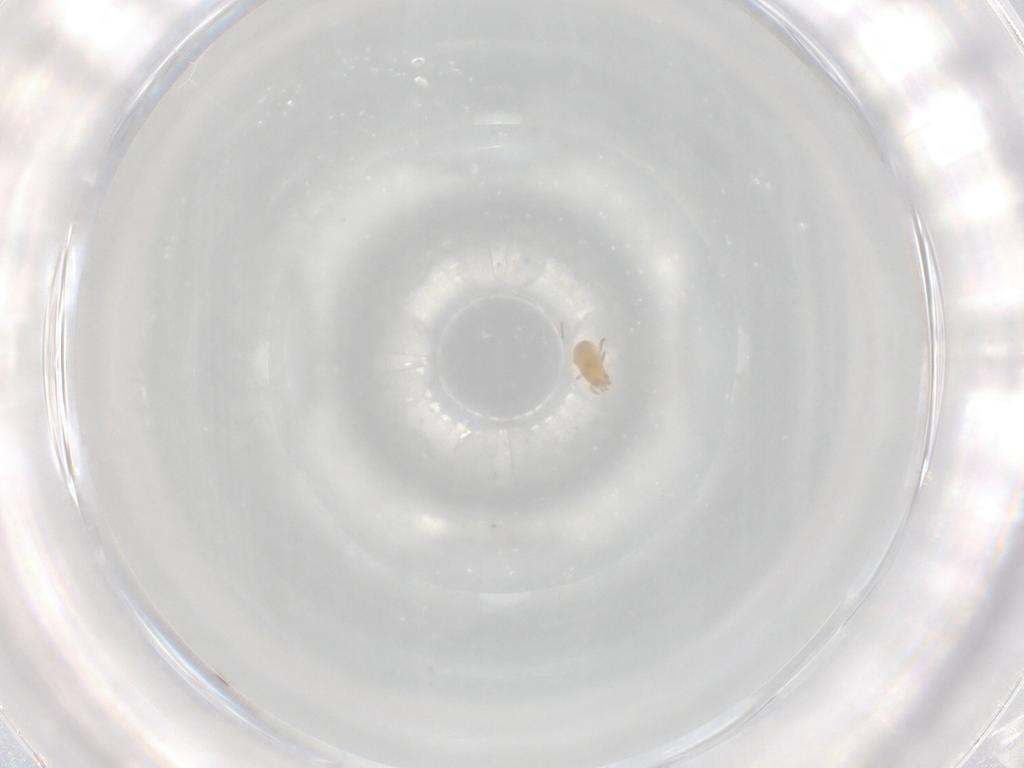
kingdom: Animalia
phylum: Arthropoda
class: Arachnida
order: Mesostigmata
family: Ascidae
